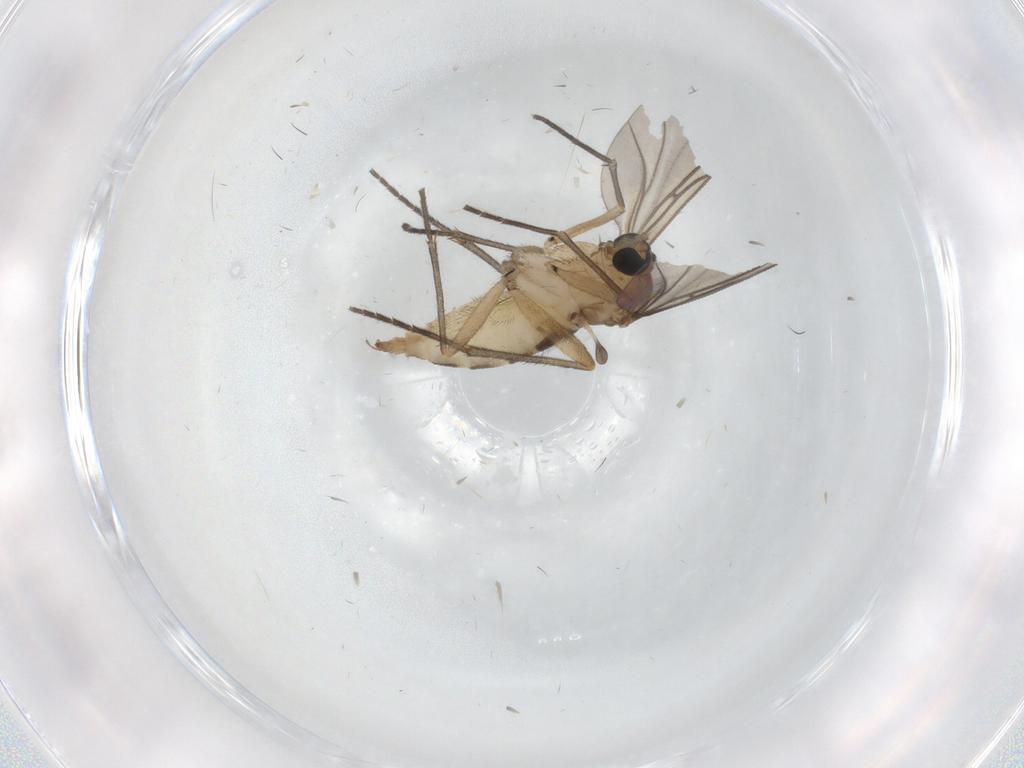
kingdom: Animalia
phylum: Arthropoda
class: Insecta
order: Diptera
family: Sciaridae
